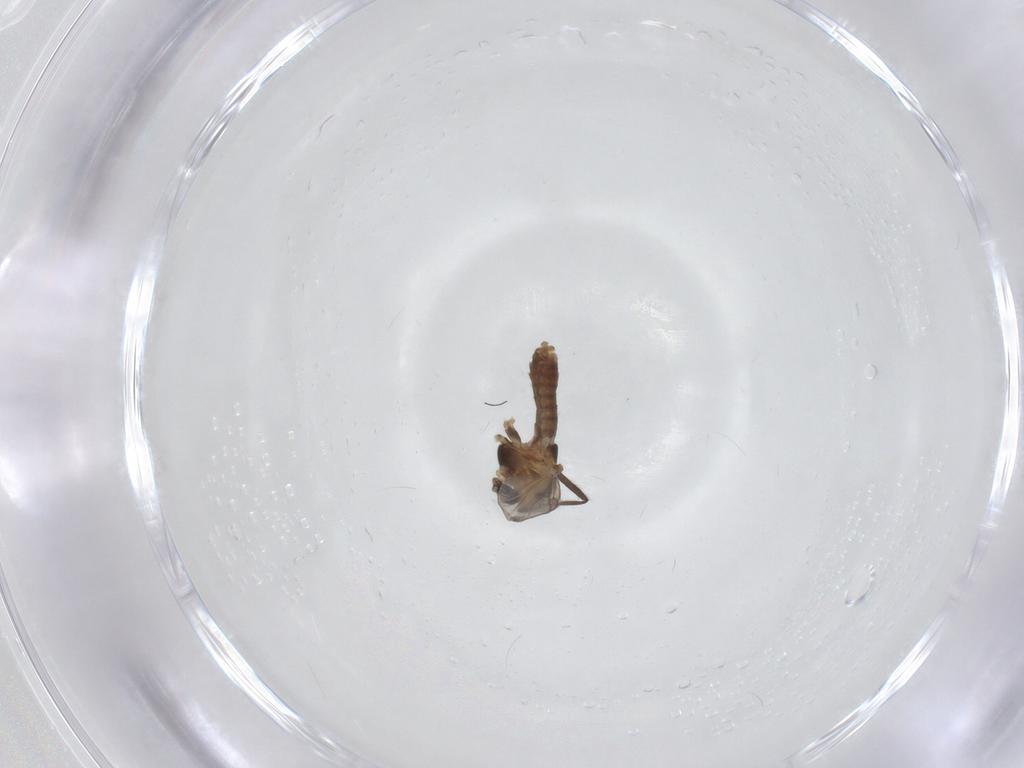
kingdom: Animalia
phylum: Arthropoda
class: Insecta
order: Diptera
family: Chironomidae
